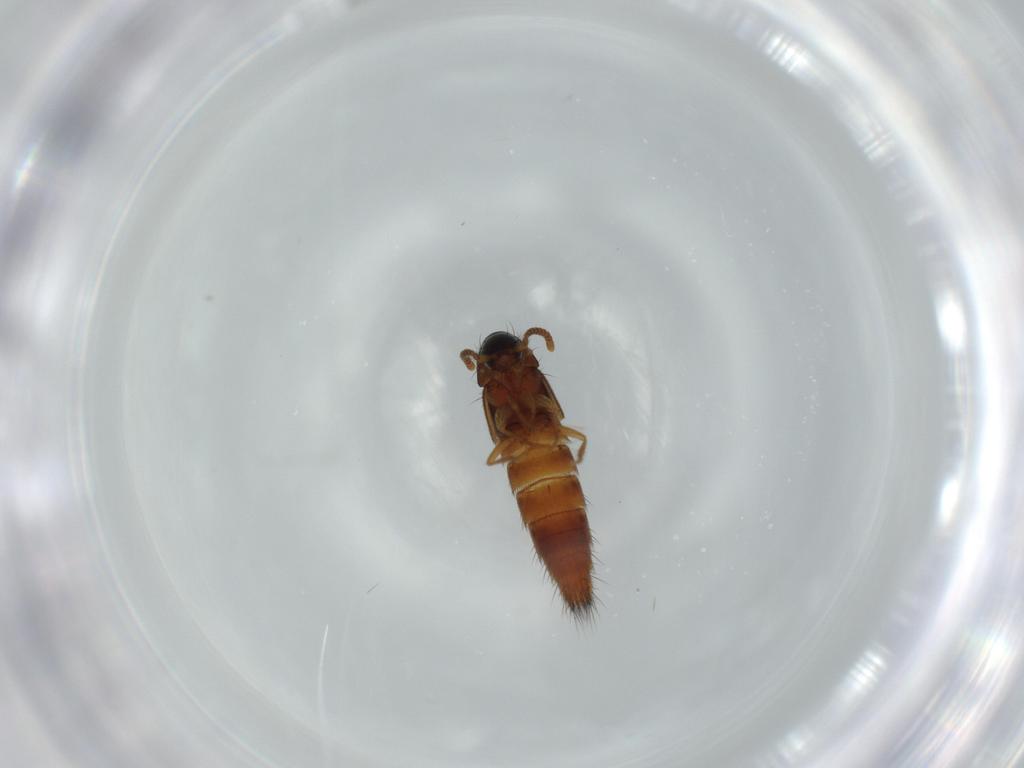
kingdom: Animalia
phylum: Arthropoda
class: Insecta
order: Coleoptera
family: Staphylinidae
